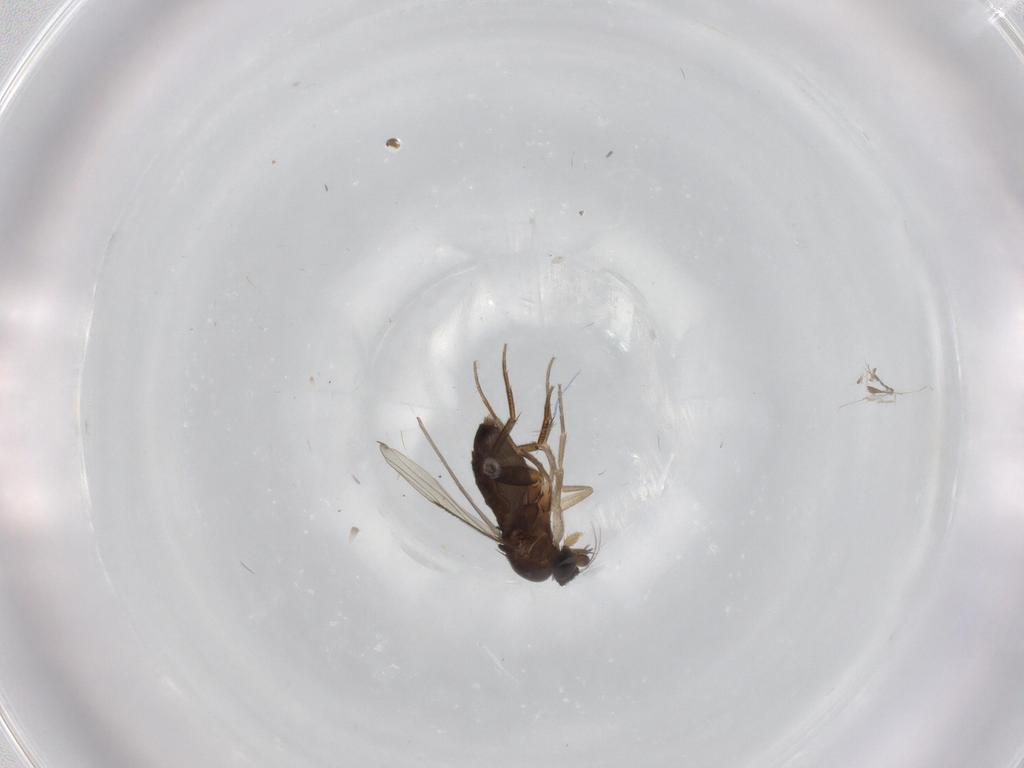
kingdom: Animalia
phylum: Arthropoda
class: Insecta
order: Diptera
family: Phoridae
